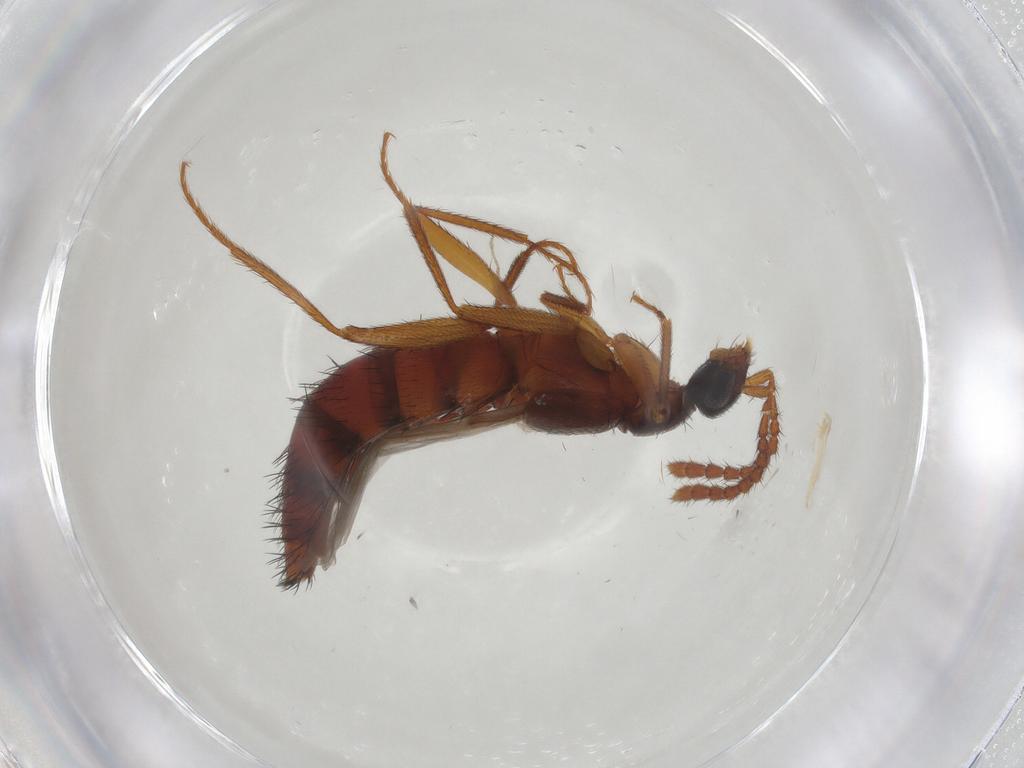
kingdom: Animalia
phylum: Arthropoda
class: Insecta
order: Coleoptera
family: Staphylinidae
